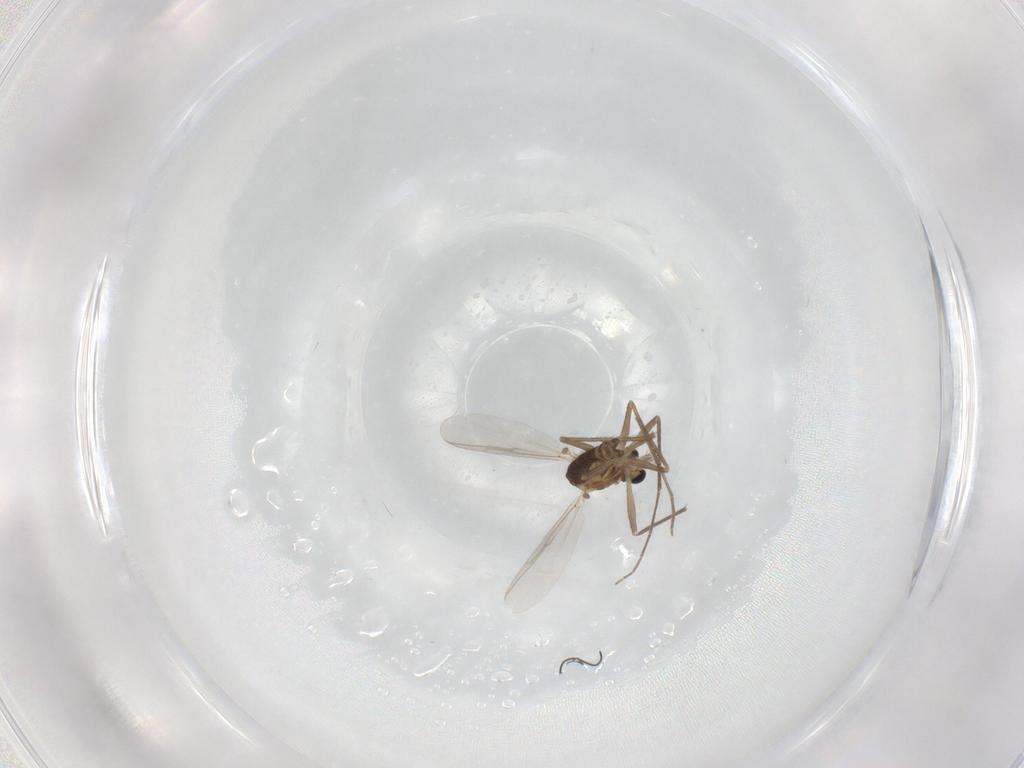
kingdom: Animalia
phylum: Arthropoda
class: Insecta
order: Diptera
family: Chironomidae
